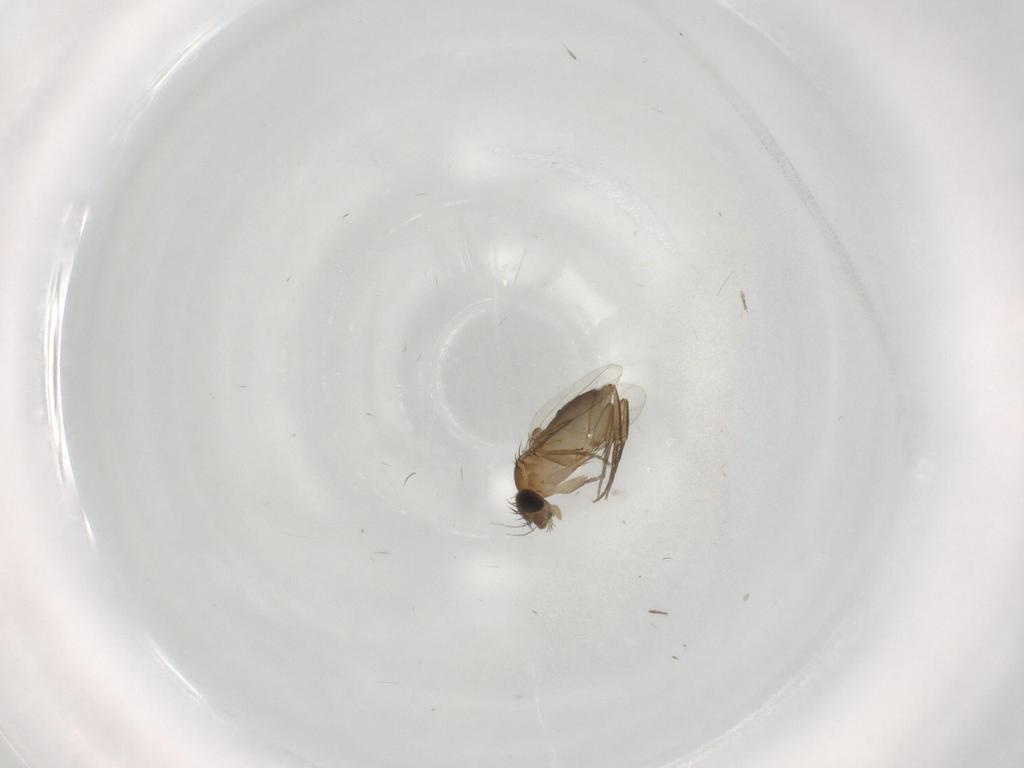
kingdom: Animalia
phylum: Arthropoda
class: Insecta
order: Diptera
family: Phoridae
